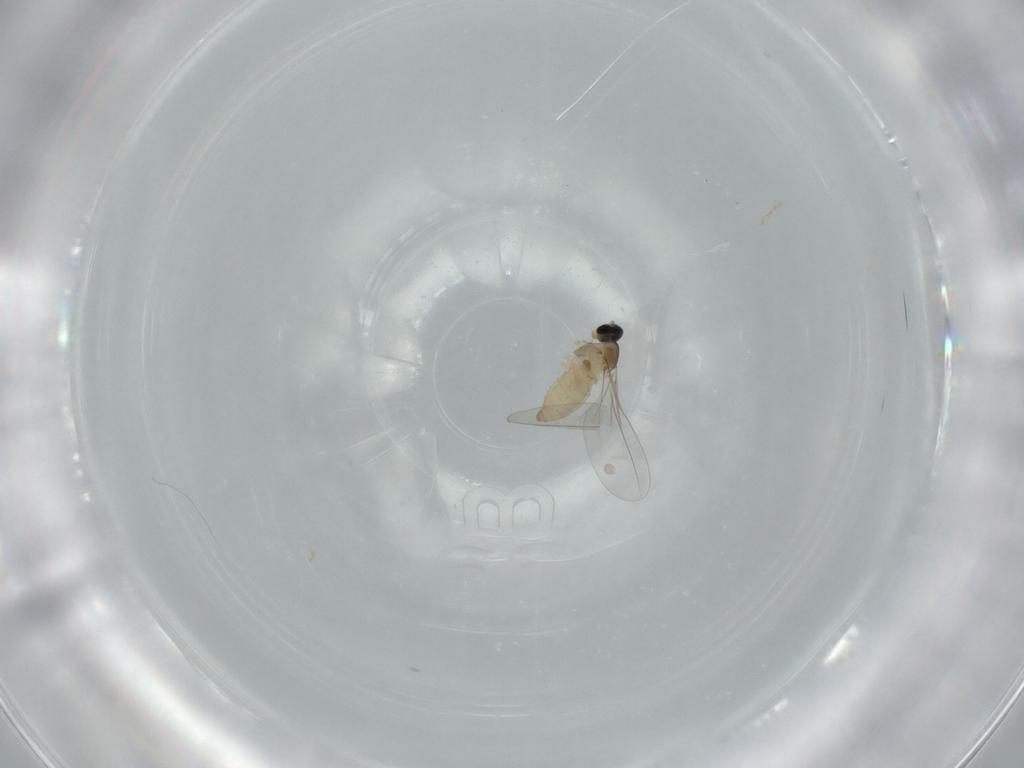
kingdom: Animalia
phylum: Arthropoda
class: Insecta
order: Diptera
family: Cecidomyiidae
